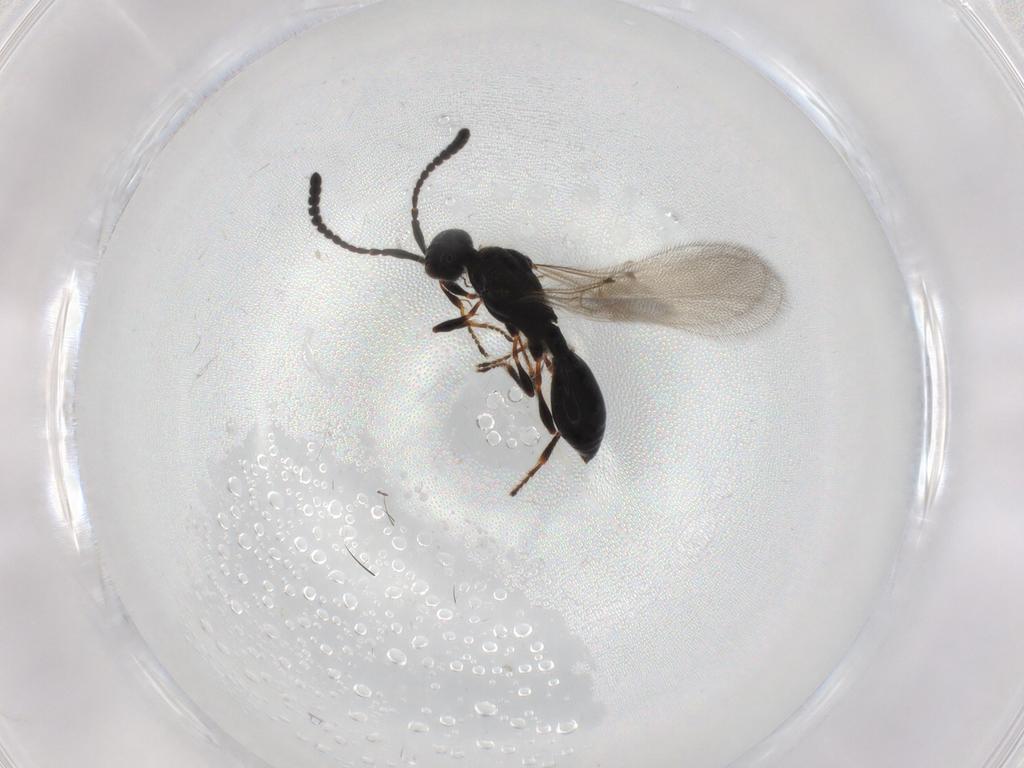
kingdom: Animalia
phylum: Arthropoda
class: Insecta
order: Hymenoptera
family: Diapriidae
